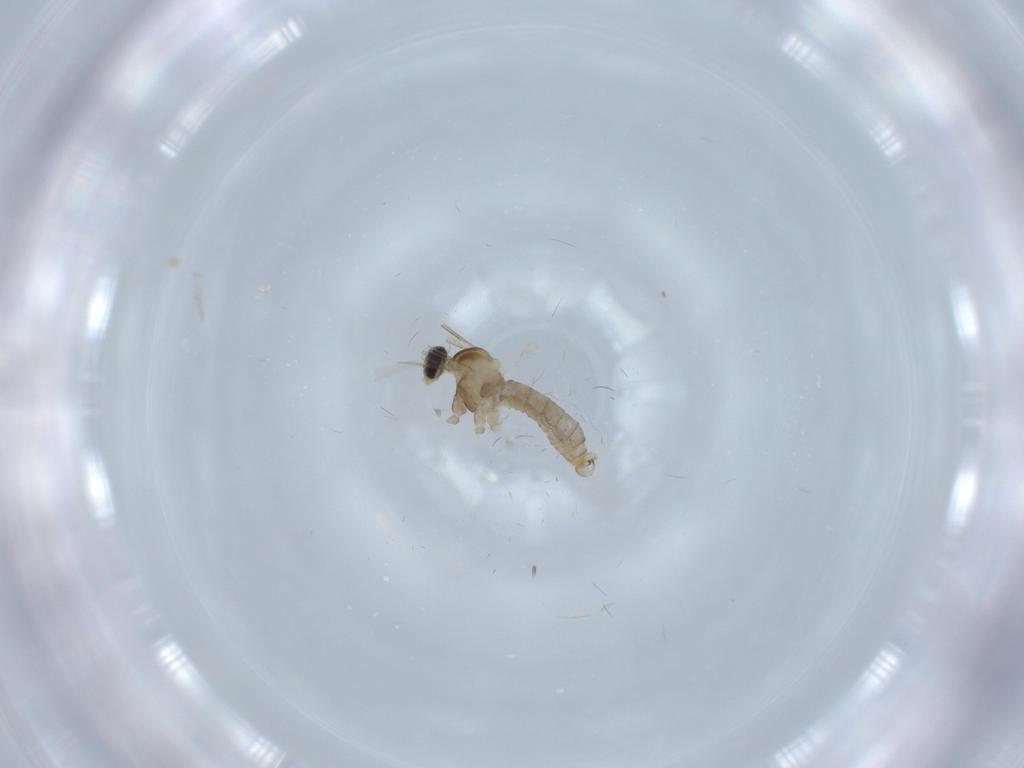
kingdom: Animalia
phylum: Arthropoda
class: Insecta
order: Diptera
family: Cecidomyiidae
